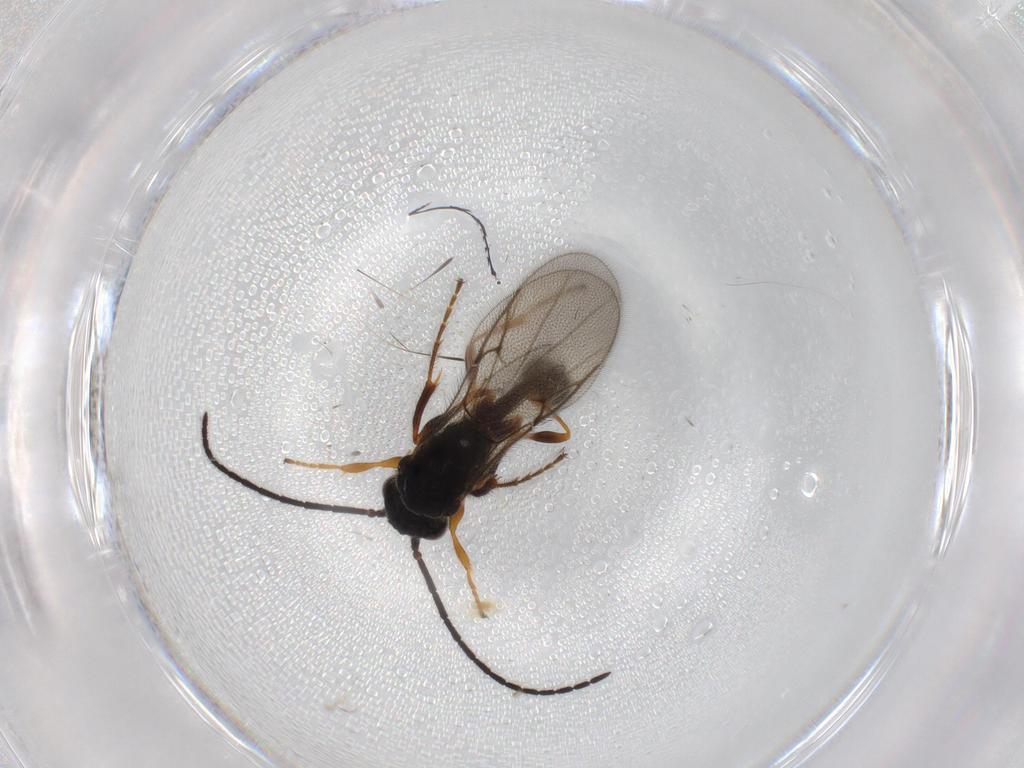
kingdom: Animalia
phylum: Arthropoda
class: Insecta
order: Hymenoptera
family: Diapriidae
